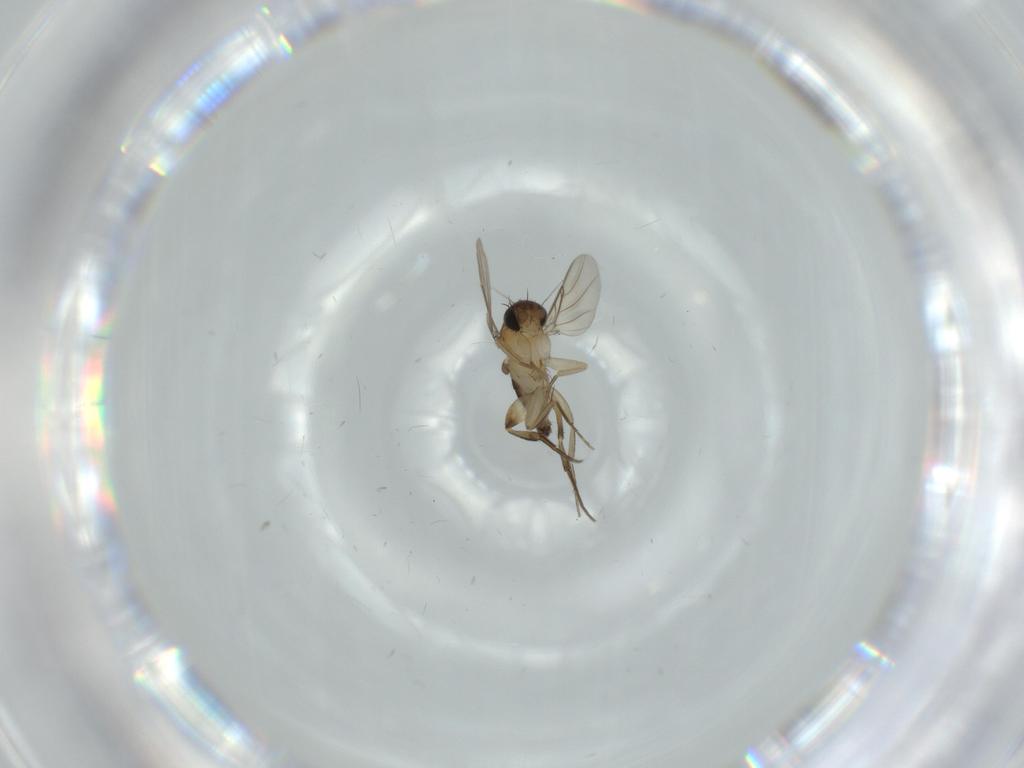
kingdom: Animalia
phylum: Arthropoda
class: Insecta
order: Diptera
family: Phoridae
